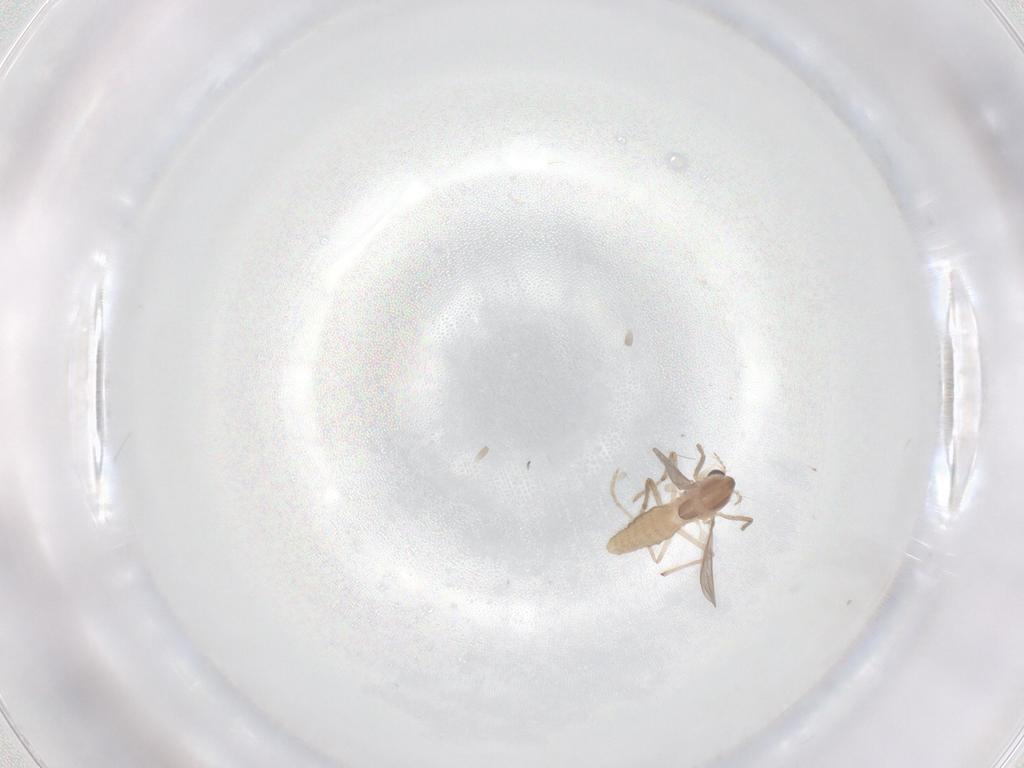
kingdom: Animalia
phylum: Arthropoda
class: Insecta
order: Diptera
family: Chironomidae
